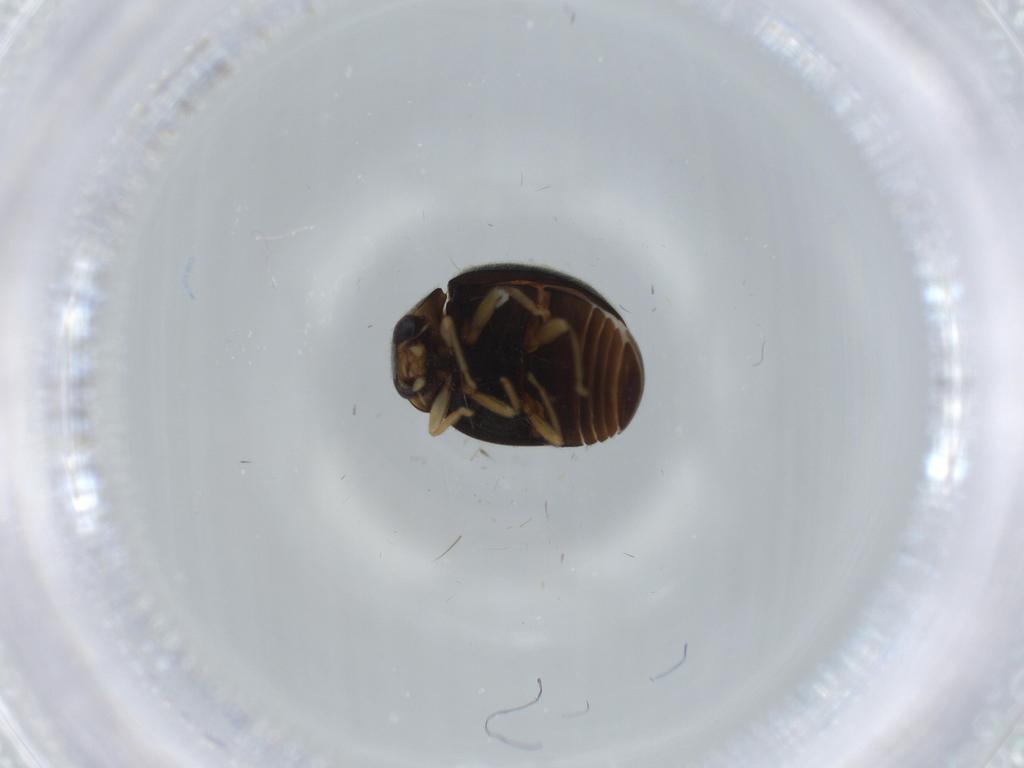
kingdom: Animalia
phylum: Arthropoda
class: Insecta
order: Coleoptera
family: Coccinellidae
